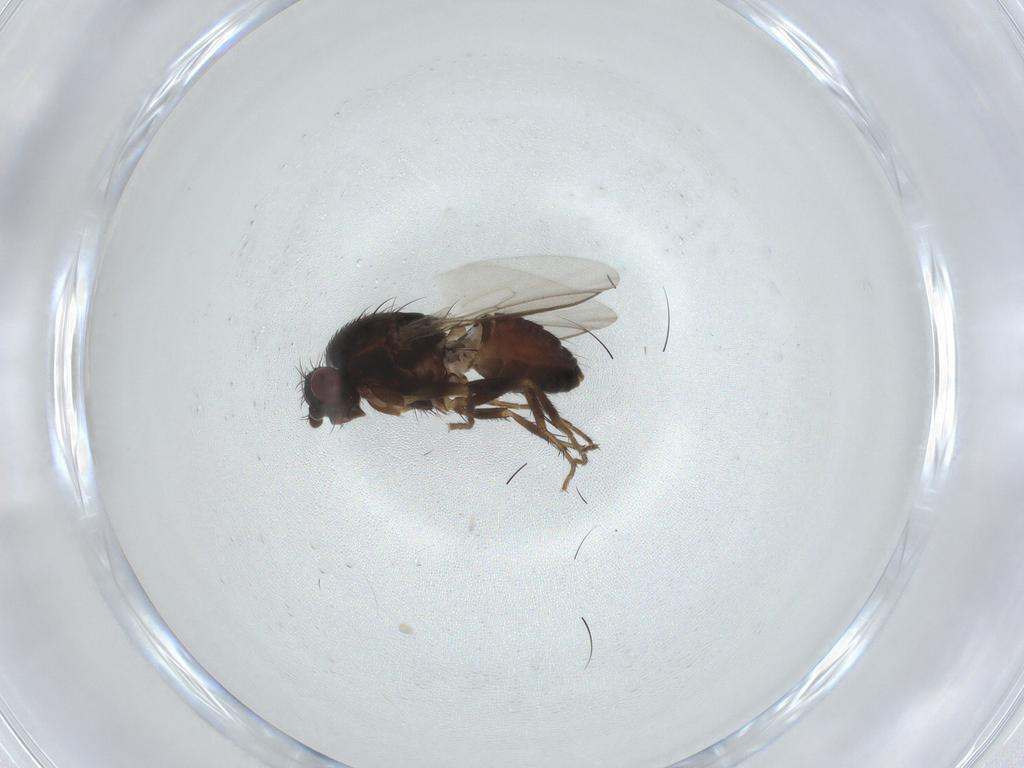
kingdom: Animalia
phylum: Arthropoda
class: Insecta
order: Diptera
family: Sphaeroceridae
